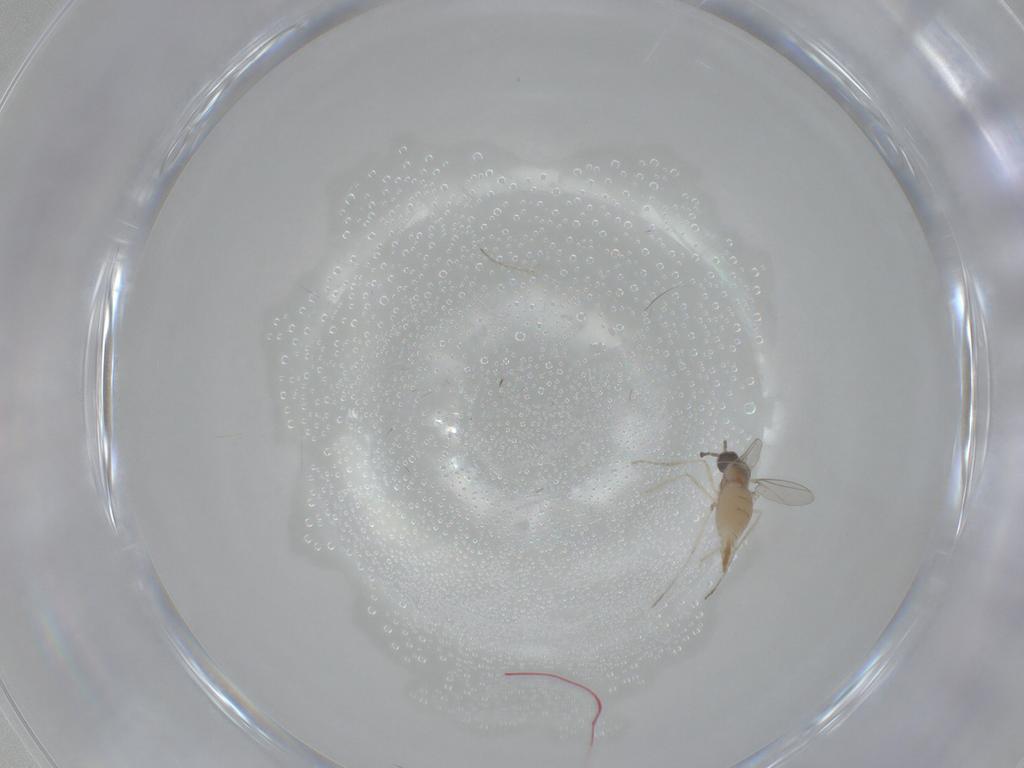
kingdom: Animalia
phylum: Arthropoda
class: Insecta
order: Diptera
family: Cecidomyiidae
